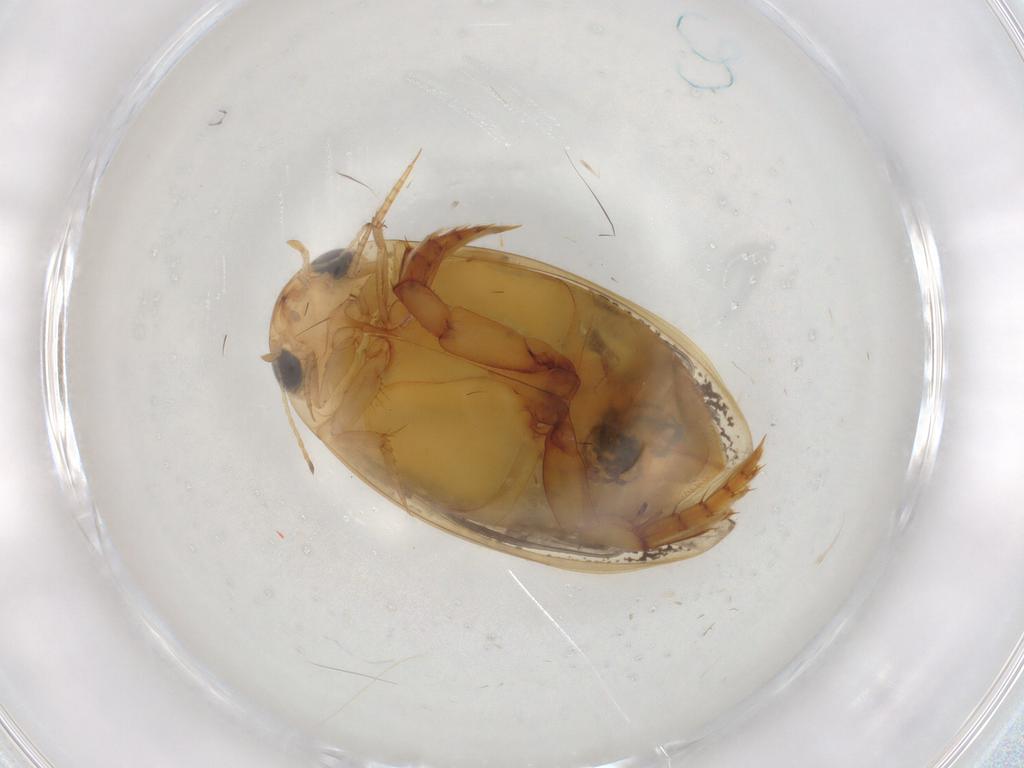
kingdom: Animalia
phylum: Arthropoda
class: Insecta
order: Coleoptera
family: Dytiscidae
